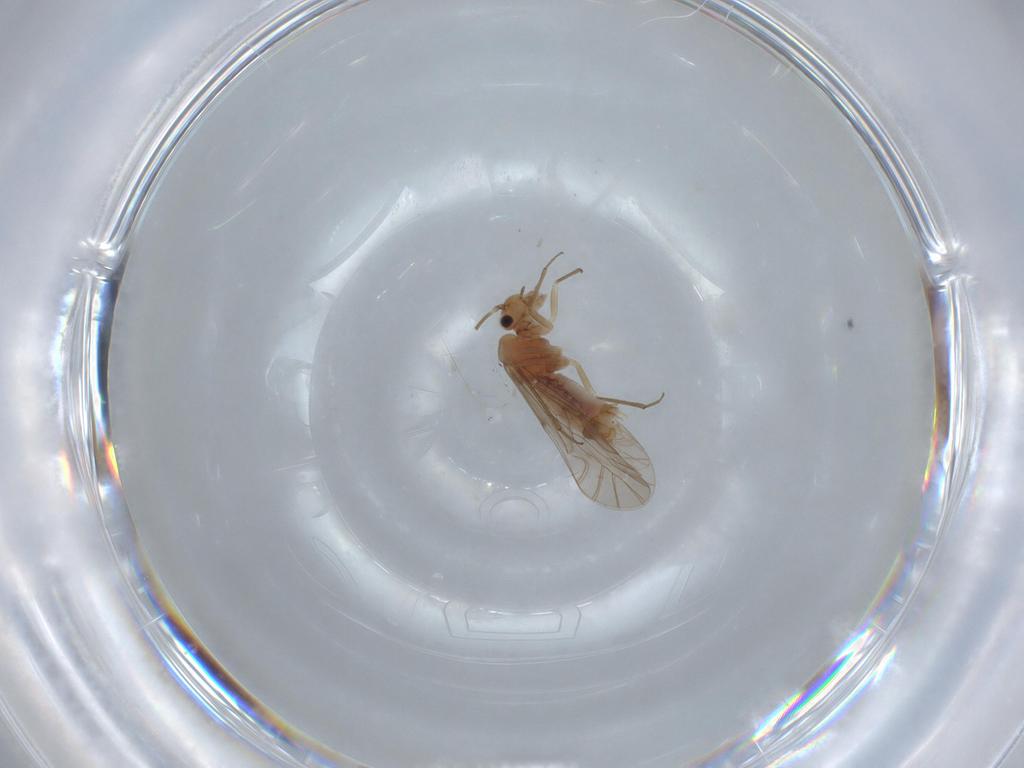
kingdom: Animalia
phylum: Arthropoda
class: Insecta
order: Psocodea
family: Lachesillidae
